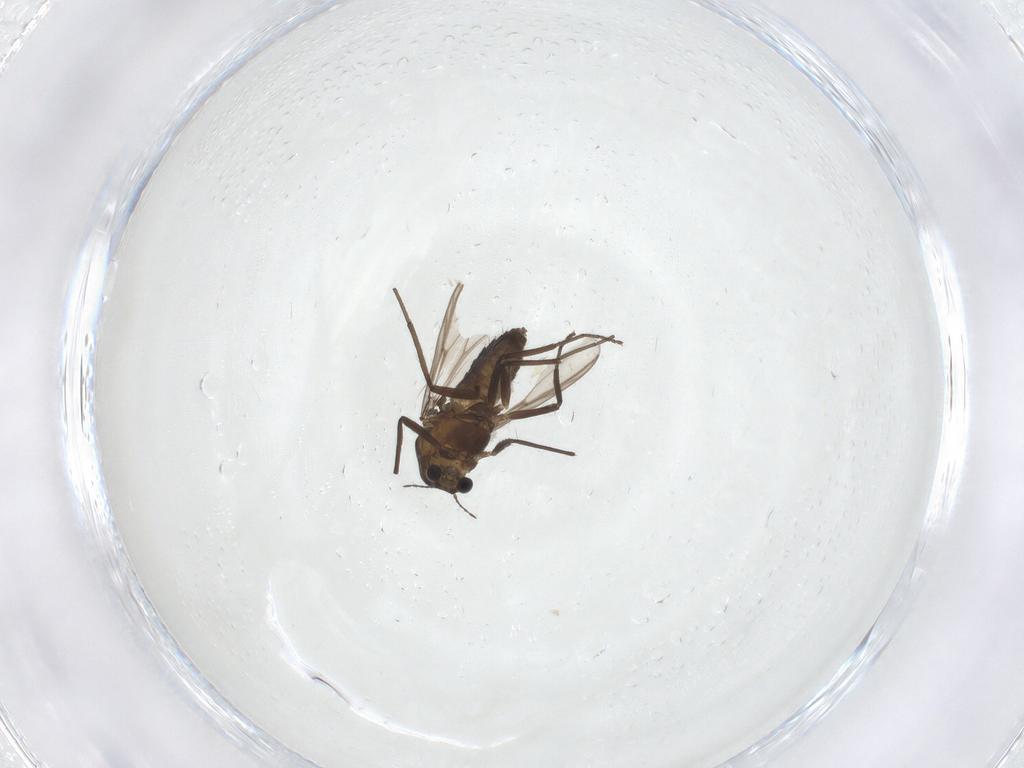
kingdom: Animalia
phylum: Arthropoda
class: Insecta
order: Diptera
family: Chironomidae
